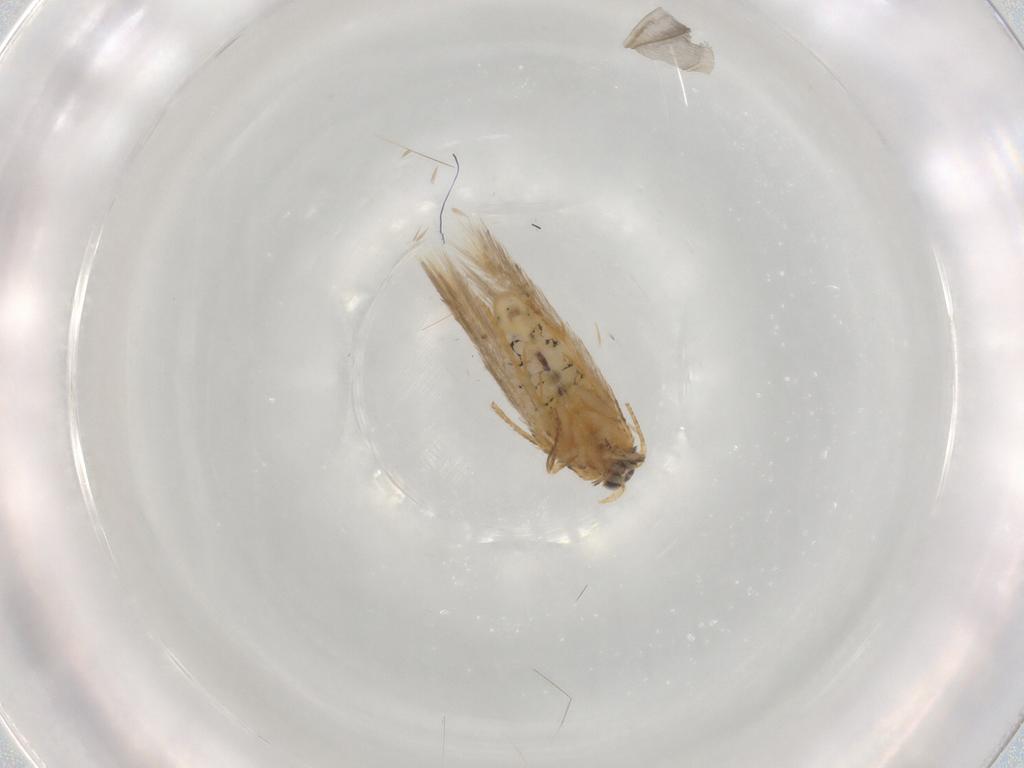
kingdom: Animalia
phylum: Arthropoda
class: Insecta
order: Lepidoptera
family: Nepticulidae
